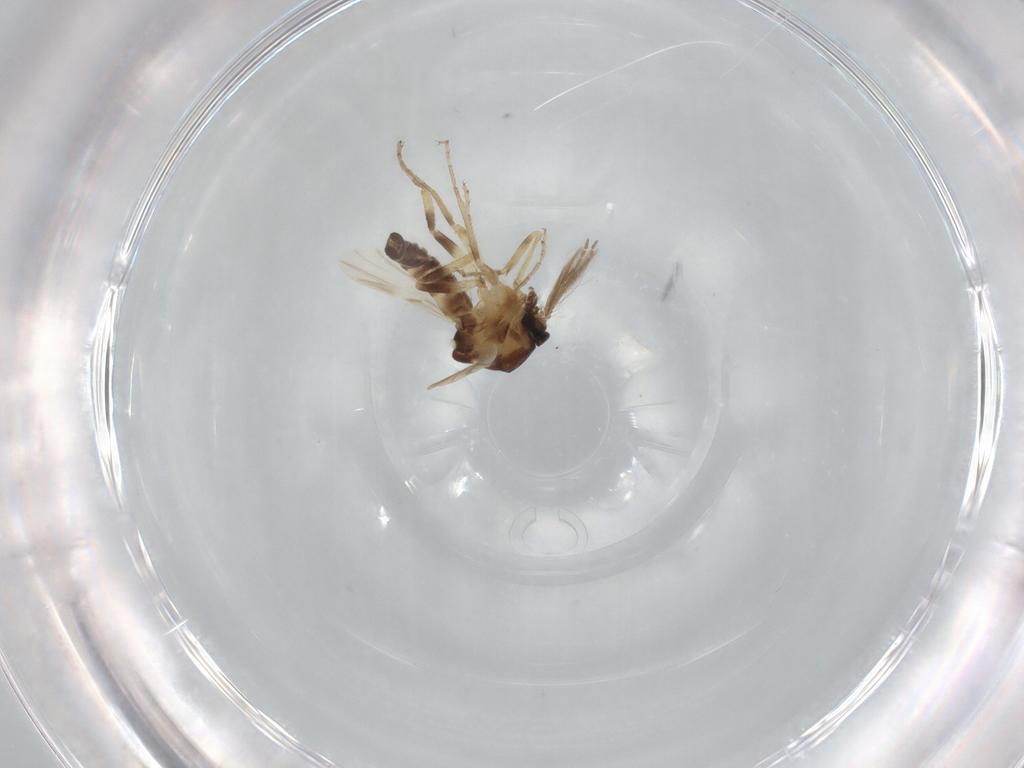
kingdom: Animalia
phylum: Arthropoda
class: Insecta
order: Diptera
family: Ceratopogonidae
